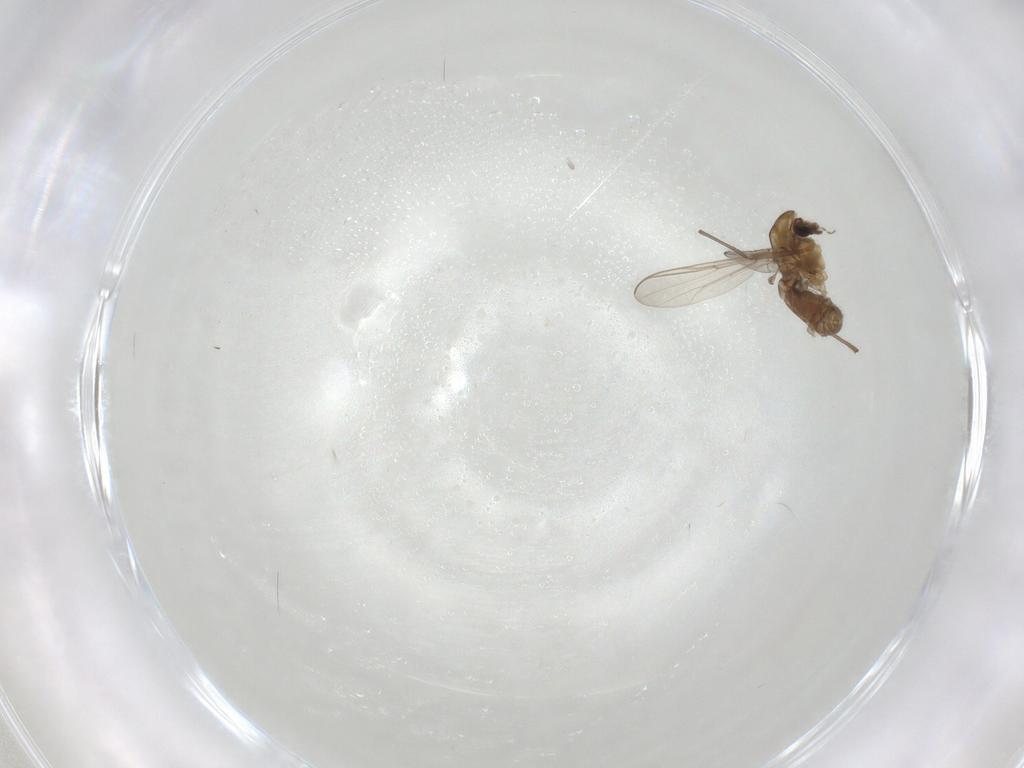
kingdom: Animalia
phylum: Arthropoda
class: Insecta
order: Diptera
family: Chironomidae
